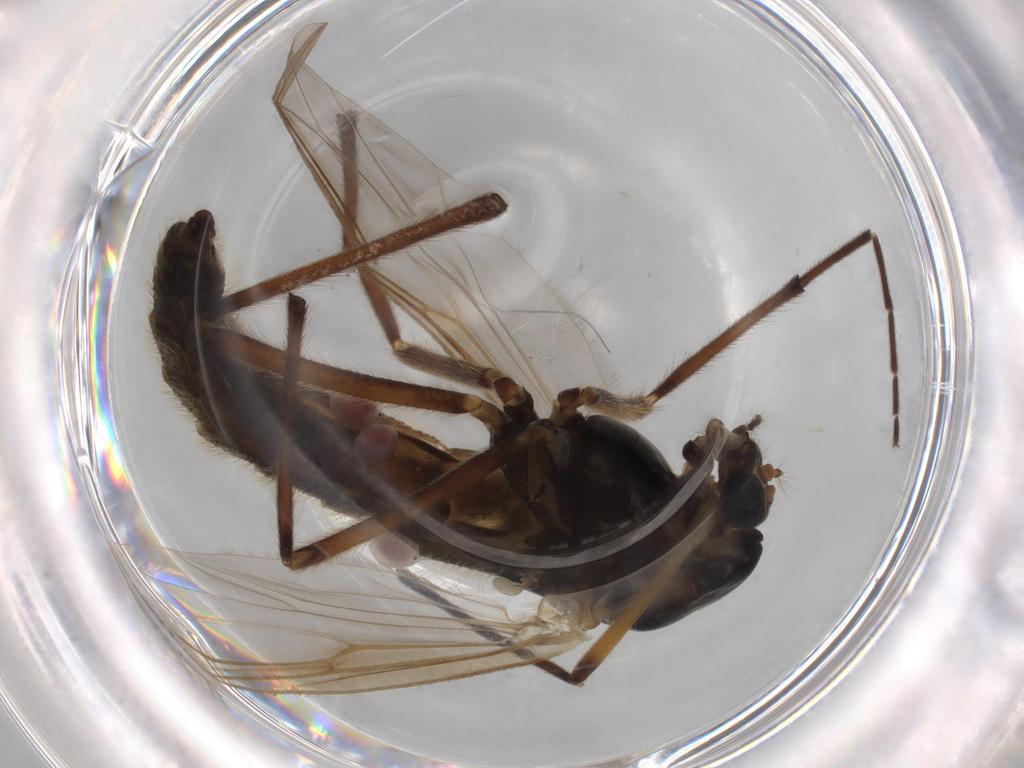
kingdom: Animalia
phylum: Arthropoda
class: Insecta
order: Diptera
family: Chironomidae
